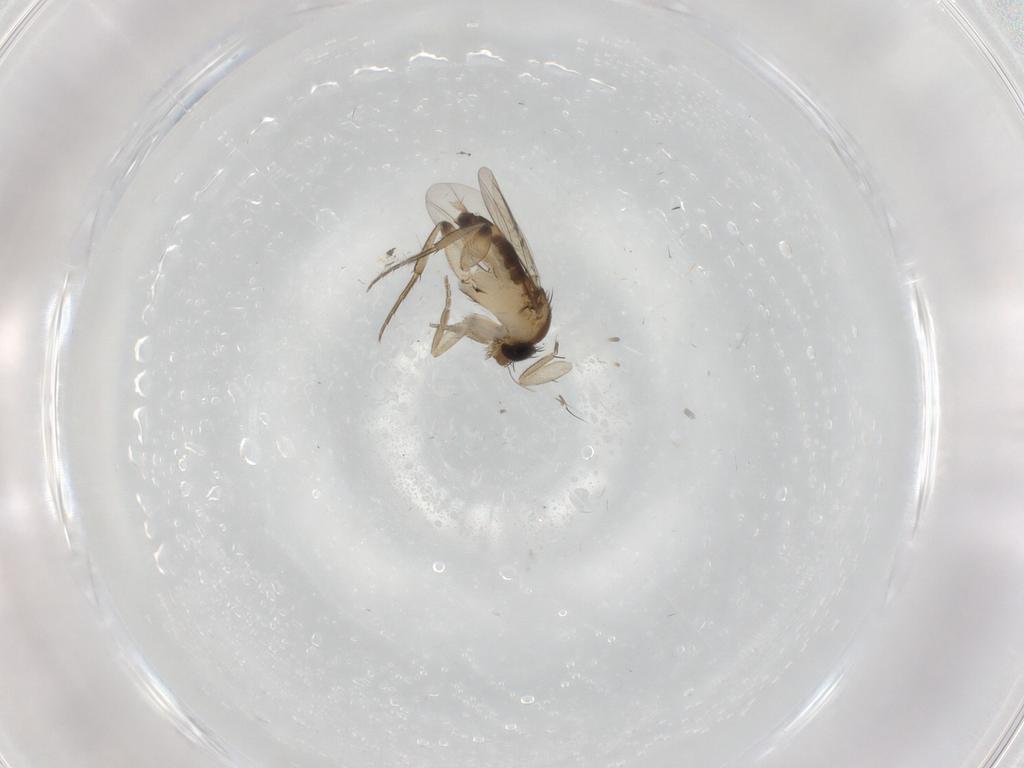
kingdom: Animalia
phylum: Arthropoda
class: Insecta
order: Diptera
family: Phoridae
